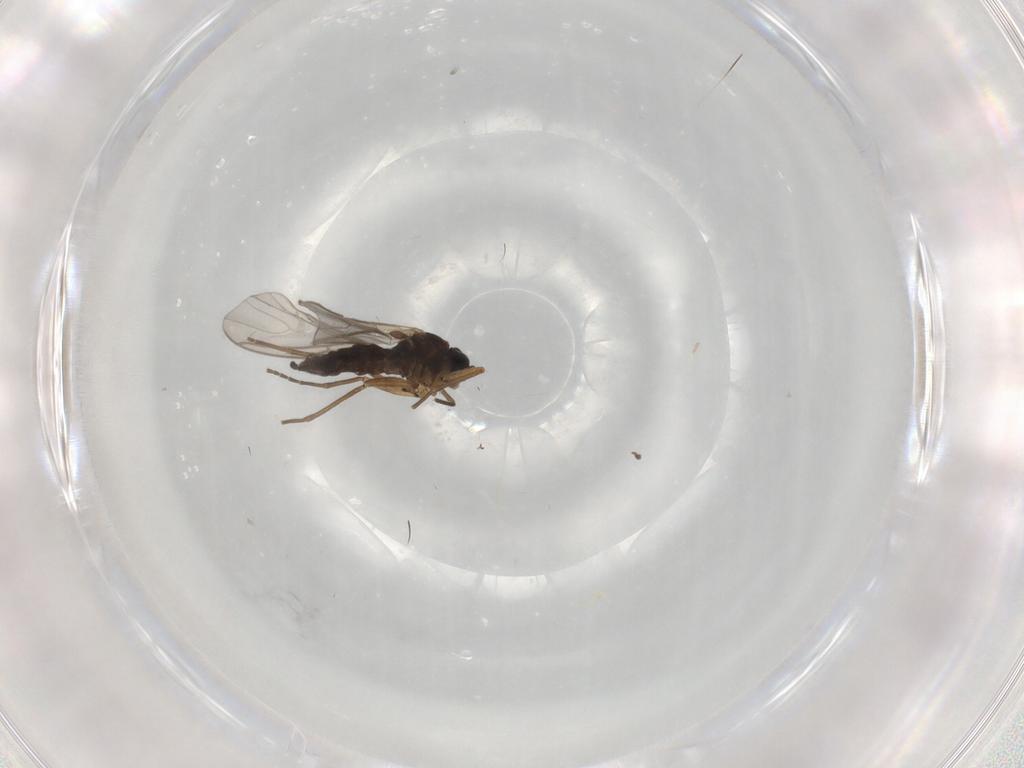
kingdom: Animalia
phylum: Arthropoda
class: Insecta
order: Diptera
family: Sciaridae
